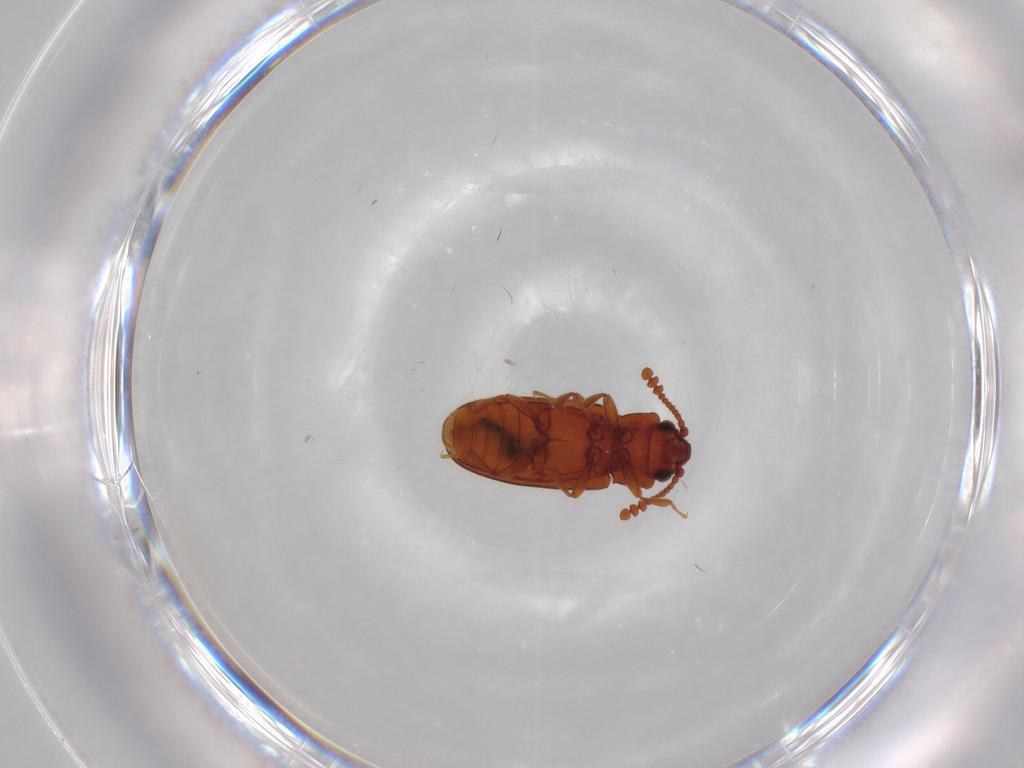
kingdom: Animalia
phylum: Arthropoda
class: Insecta
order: Coleoptera
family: Erotylidae
